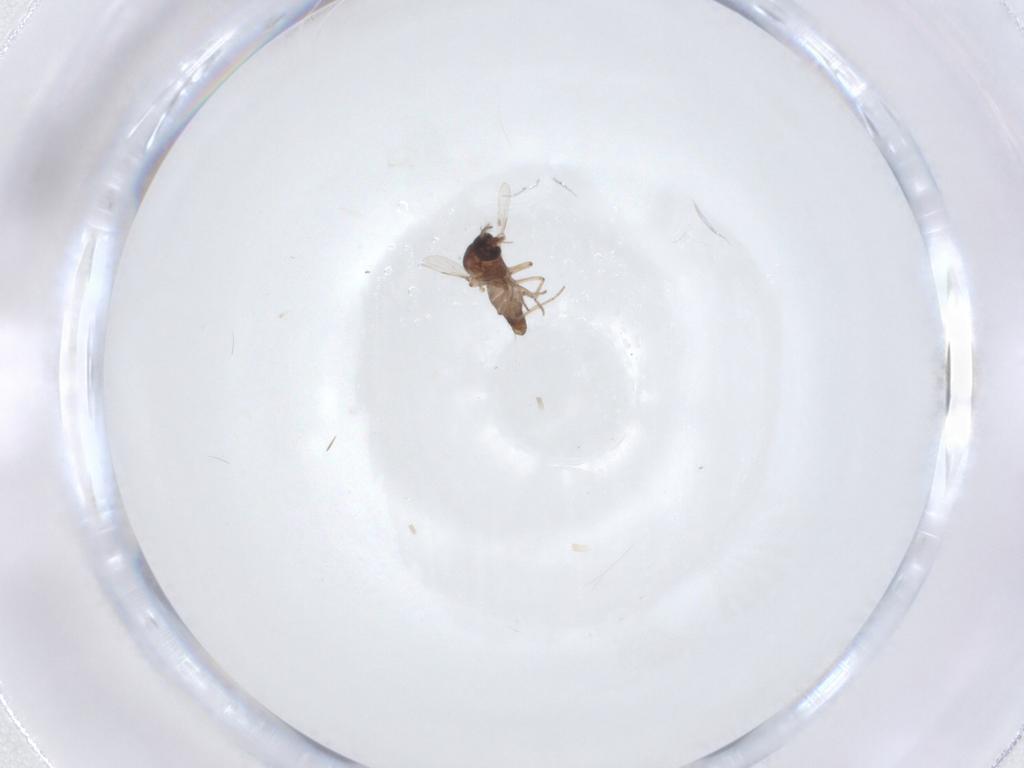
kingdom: Animalia
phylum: Arthropoda
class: Insecta
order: Diptera
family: Ceratopogonidae
